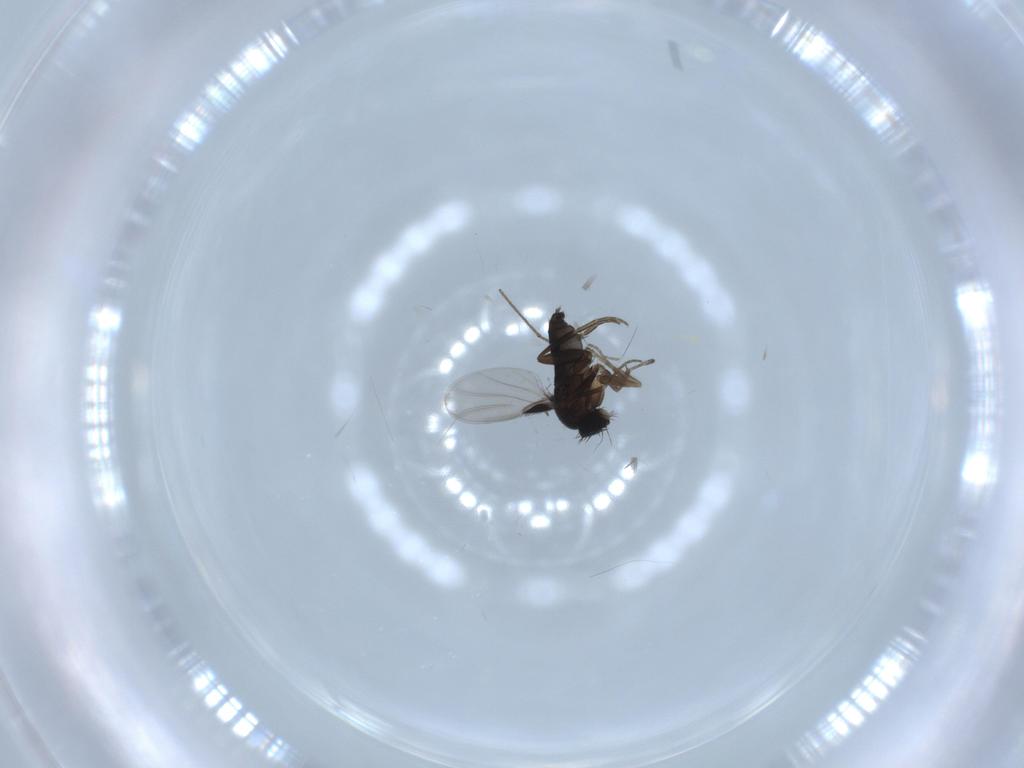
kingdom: Animalia
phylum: Arthropoda
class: Insecta
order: Diptera
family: Phoridae
